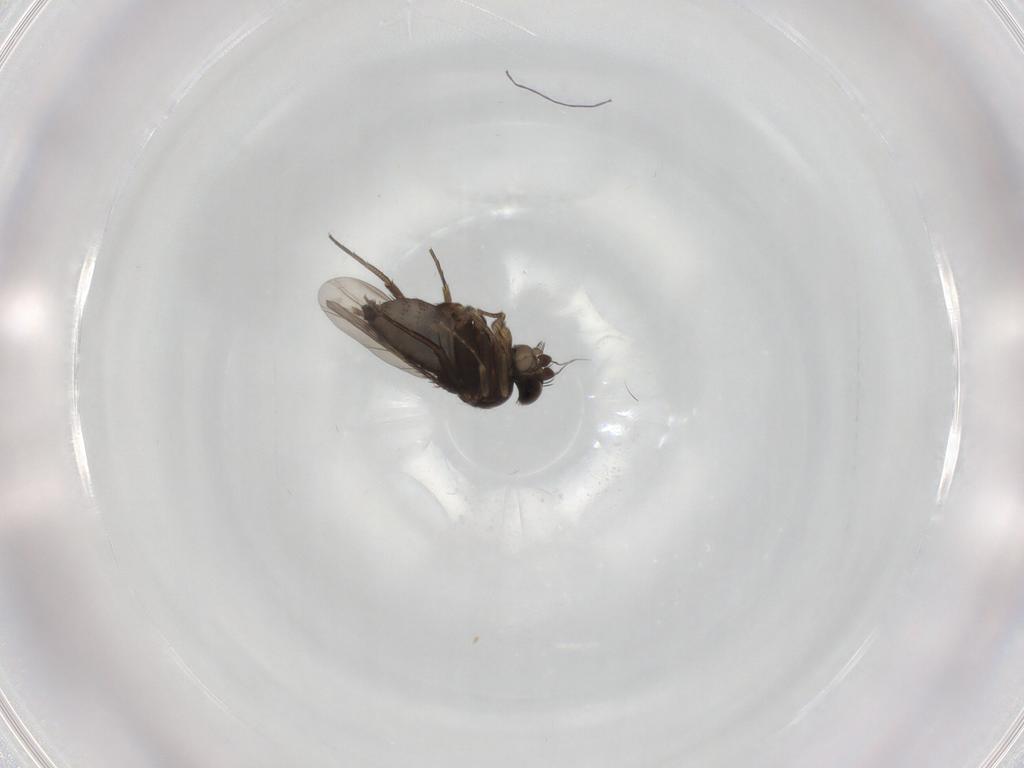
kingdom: Animalia
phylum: Arthropoda
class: Insecta
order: Diptera
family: Phoridae
